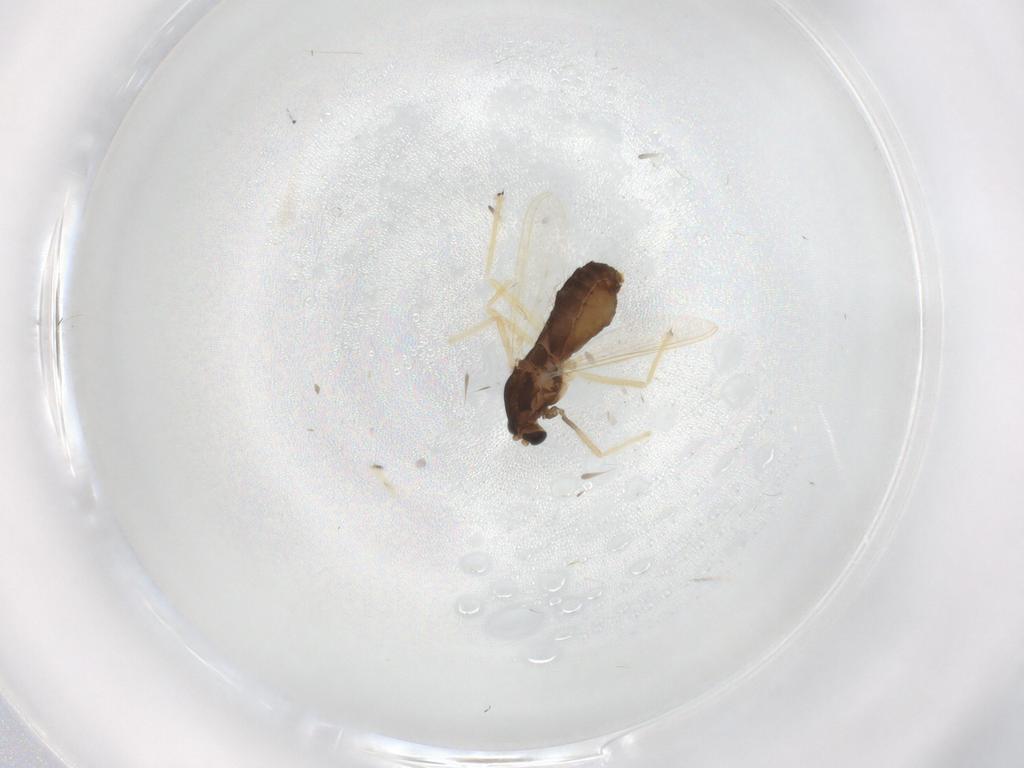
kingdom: Animalia
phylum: Arthropoda
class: Insecta
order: Diptera
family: Chironomidae
